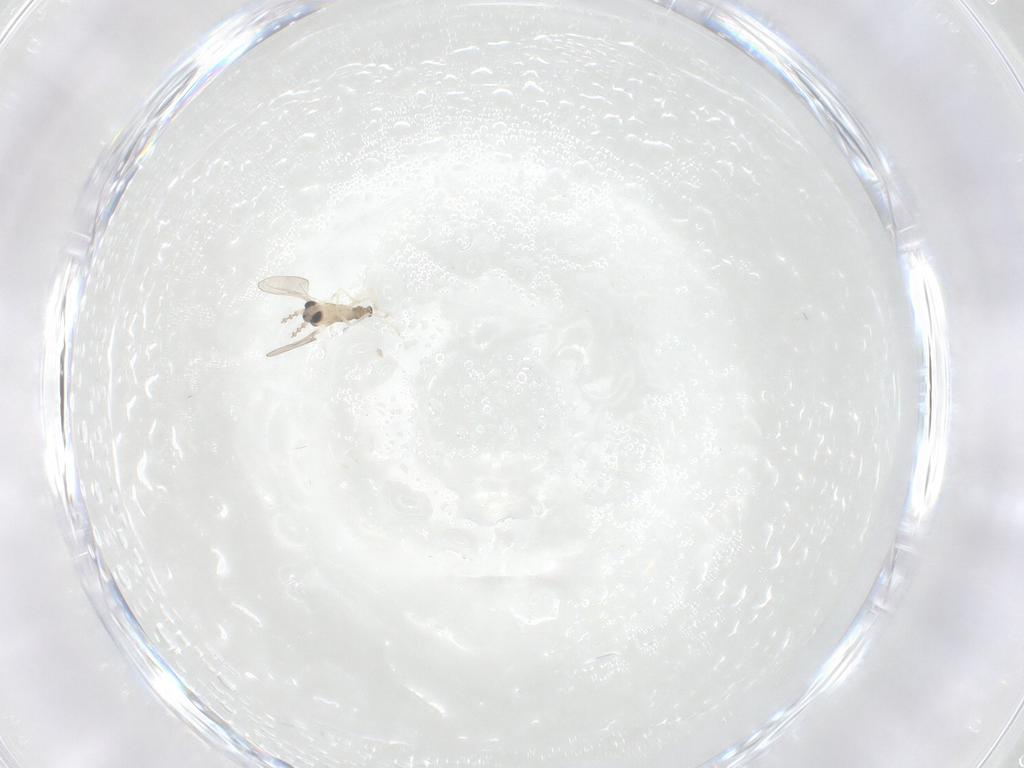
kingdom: Animalia
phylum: Arthropoda
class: Insecta
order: Diptera
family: Cecidomyiidae
